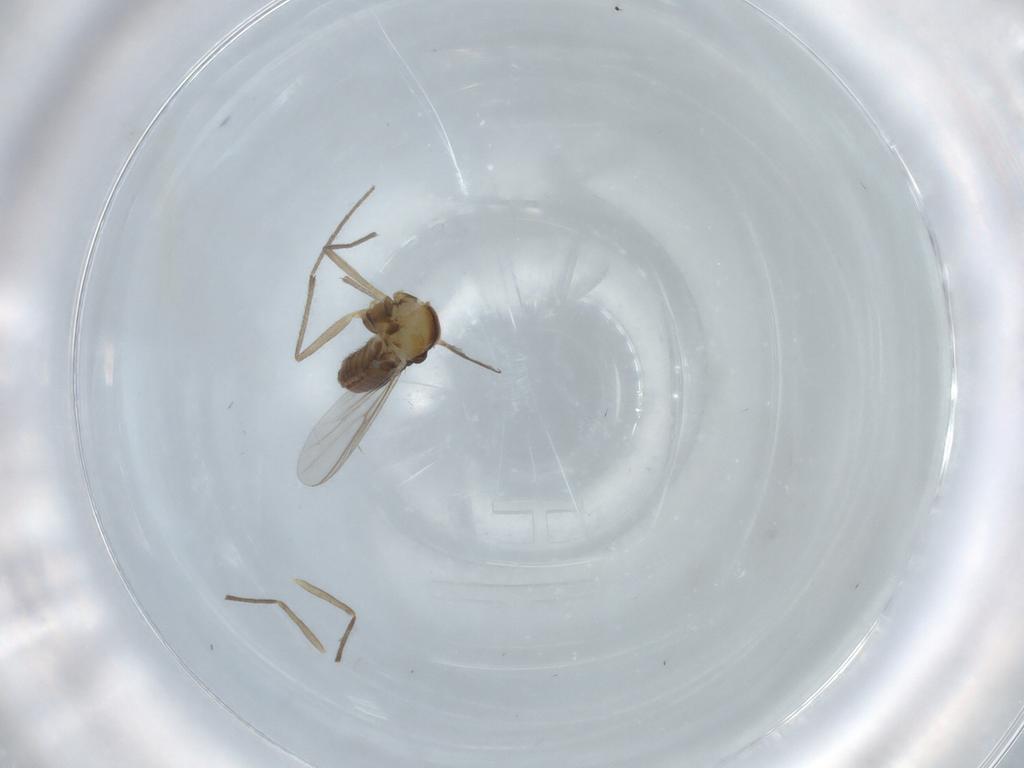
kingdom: Animalia
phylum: Arthropoda
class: Insecta
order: Diptera
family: Chironomidae
